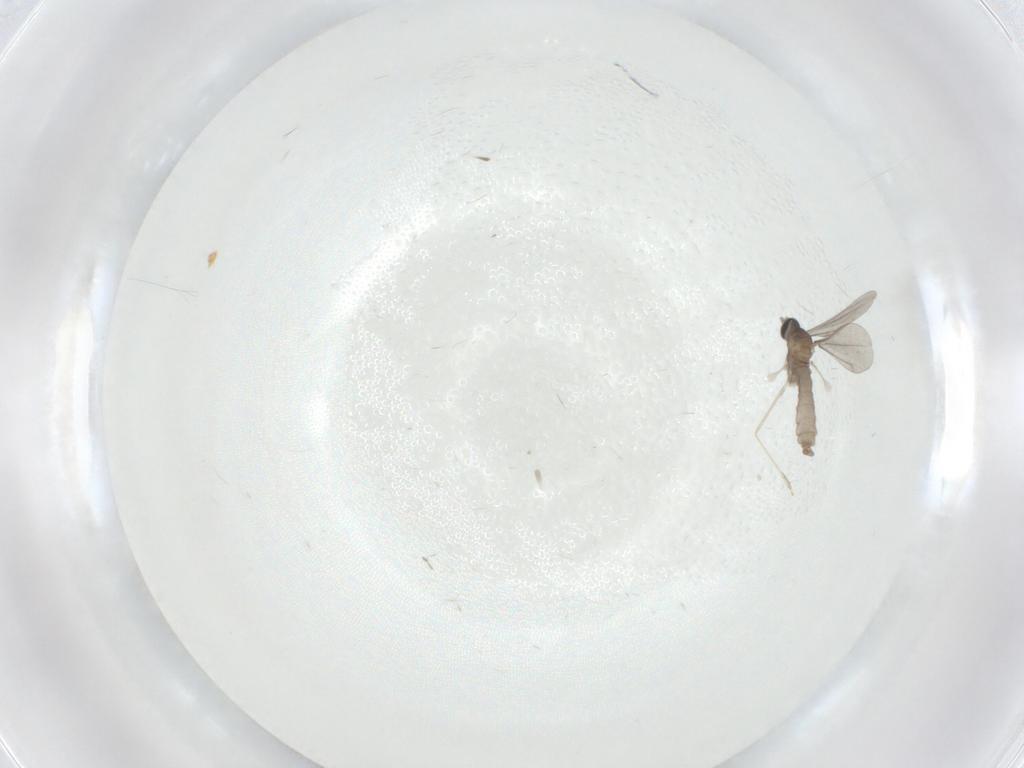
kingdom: Animalia
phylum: Arthropoda
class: Insecta
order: Diptera
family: Cecidomyiidae
